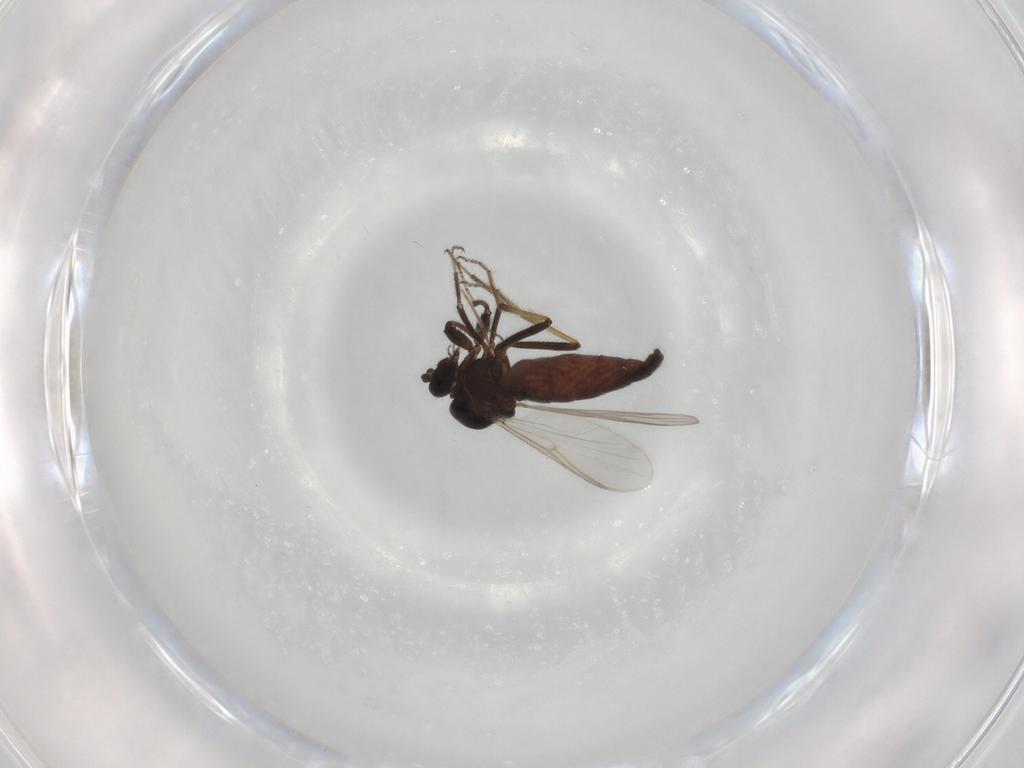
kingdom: Animalia
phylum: Arthropoda
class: Insecta
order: Diptera
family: Ceratopogonidae
